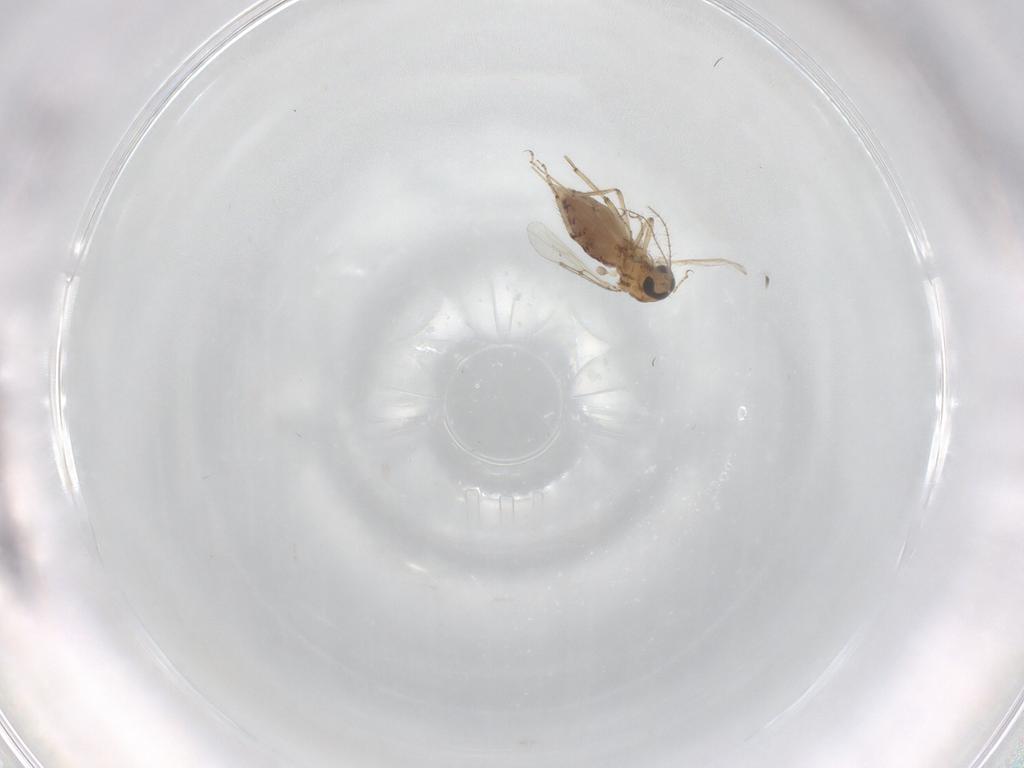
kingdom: Animalia
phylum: Arthropoda
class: Insecta
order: Diptera
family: Ceratopogonidae
